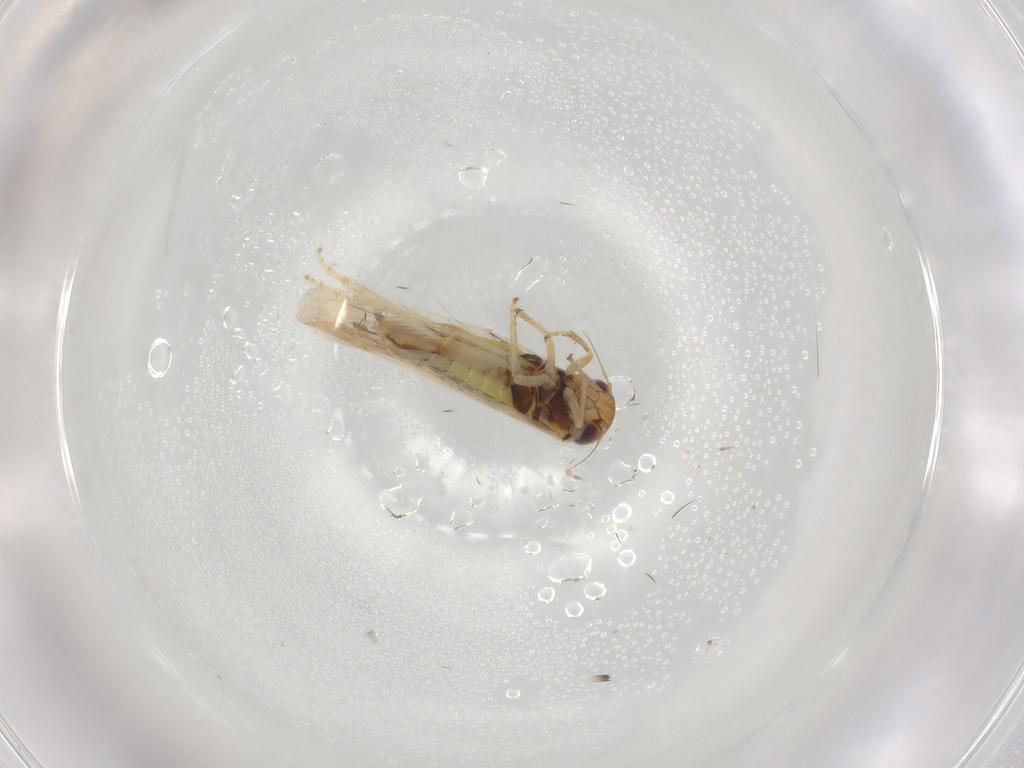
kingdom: Animalia
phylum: Arthropoda
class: Insecta
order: Hemiptera
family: Cicadellidae
